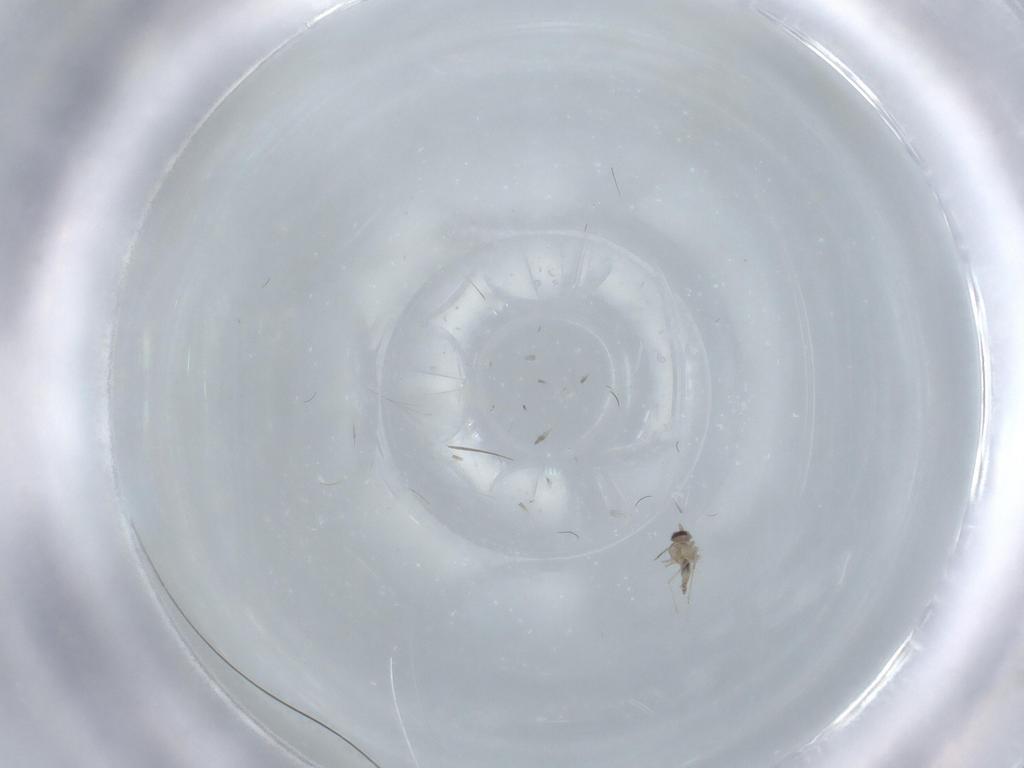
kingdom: Animalia
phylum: Arthropoda
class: Insecta
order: Diptera
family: Cecidomyiidae
